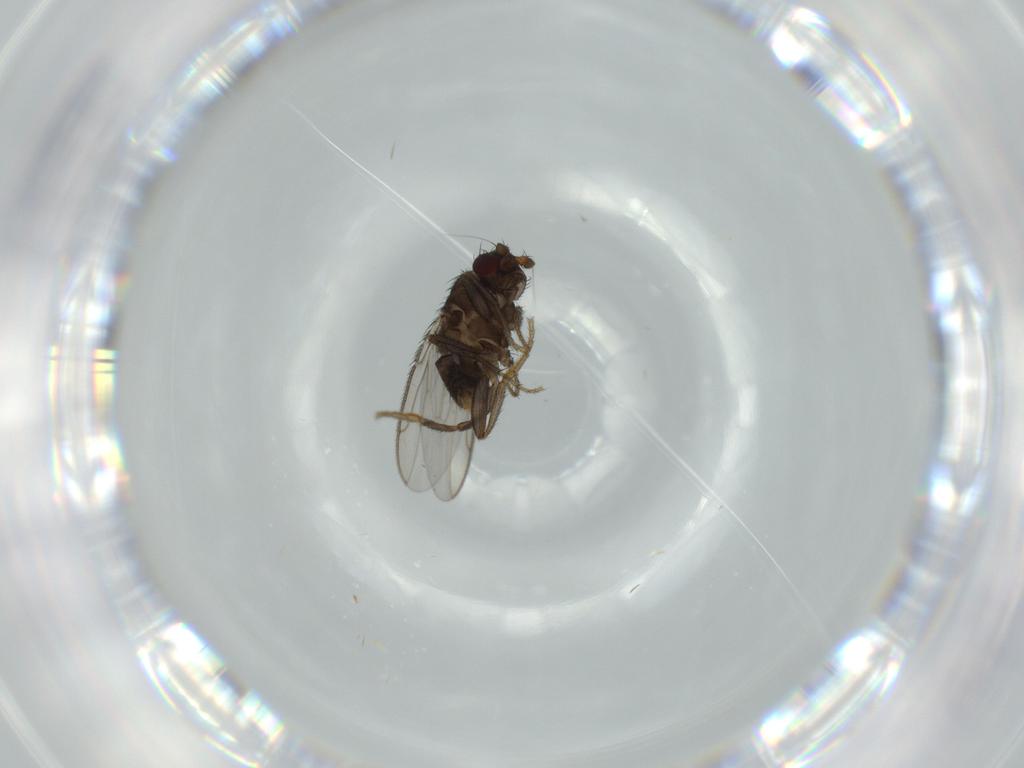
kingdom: Animalia
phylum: Arthropoda
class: Insecta
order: Diptera
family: Sphaeroceridae
